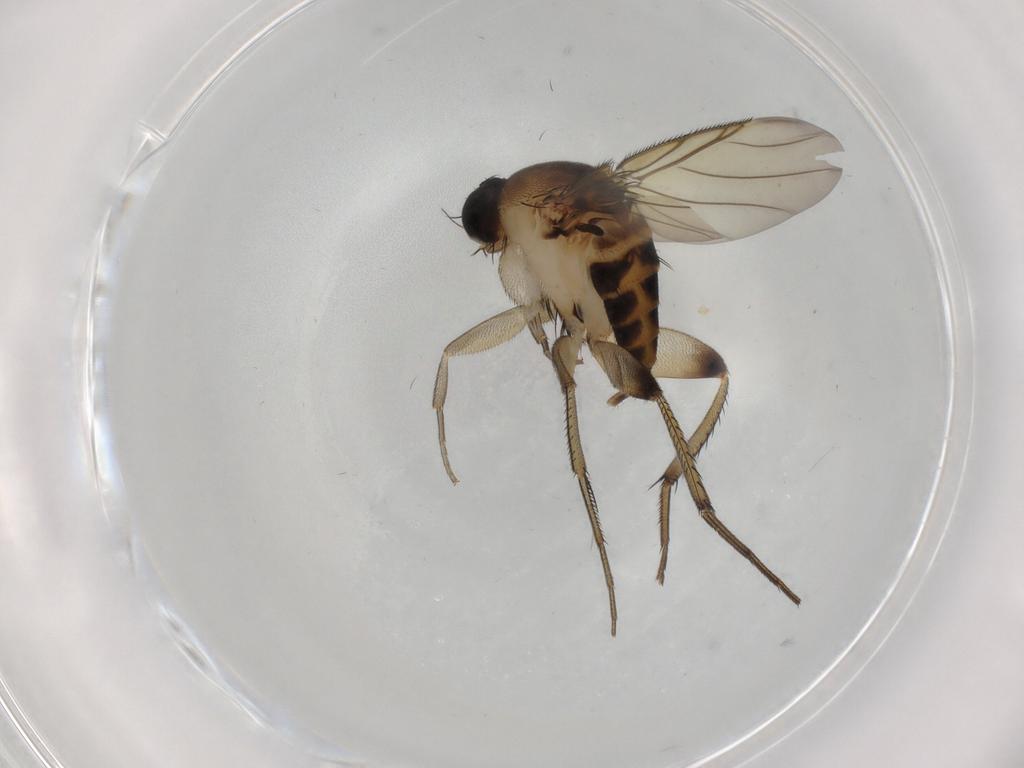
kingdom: Animalia
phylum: Arthropoda
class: Insecta
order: Diptera
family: Phoridae
